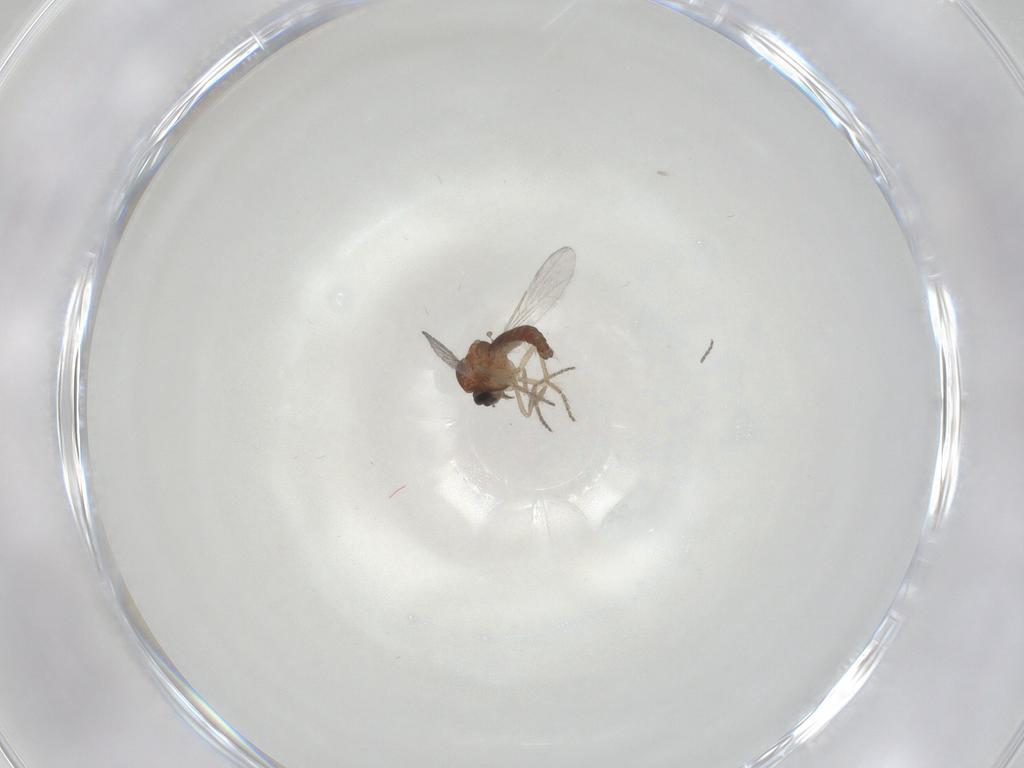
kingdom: Animalia
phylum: Arthropoda
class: Insecta
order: Diptera
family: Ceratopogonidae
